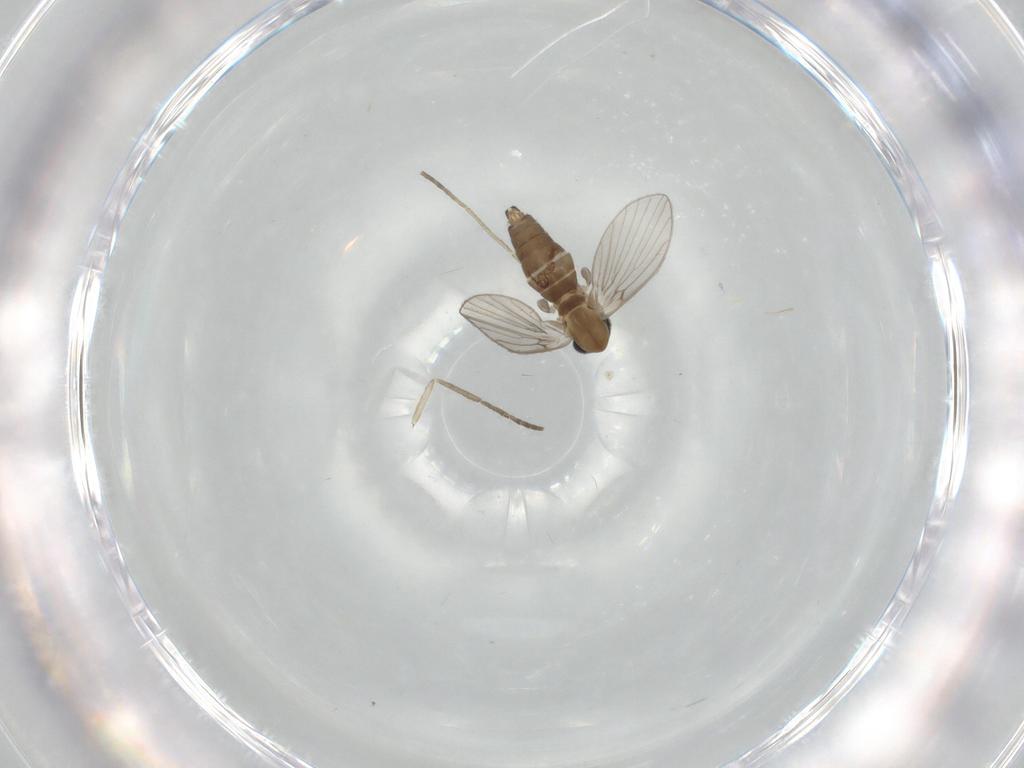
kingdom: Animalia
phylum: Arthropoda
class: Insecta
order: Diptera
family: Psychodidae
